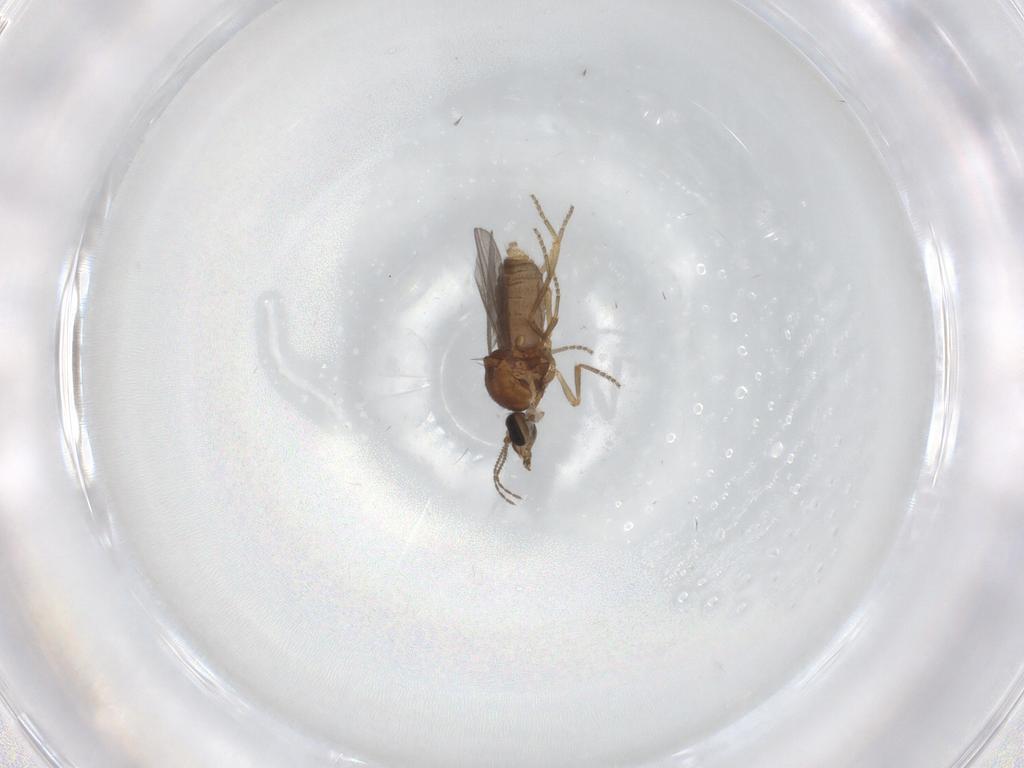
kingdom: Animalia
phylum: Arthropoda
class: Insecta
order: Diptera
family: Ceratopogonidae
